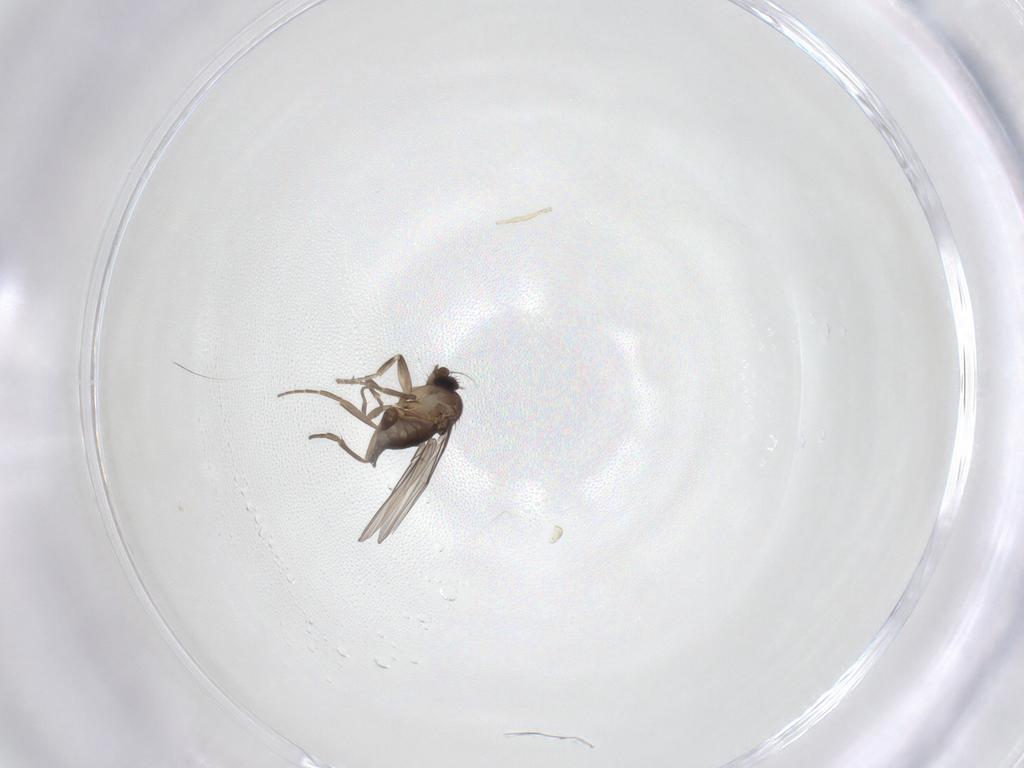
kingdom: Animalia
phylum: Arthropoda
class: Insecta
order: Diptera
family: Phoridae
